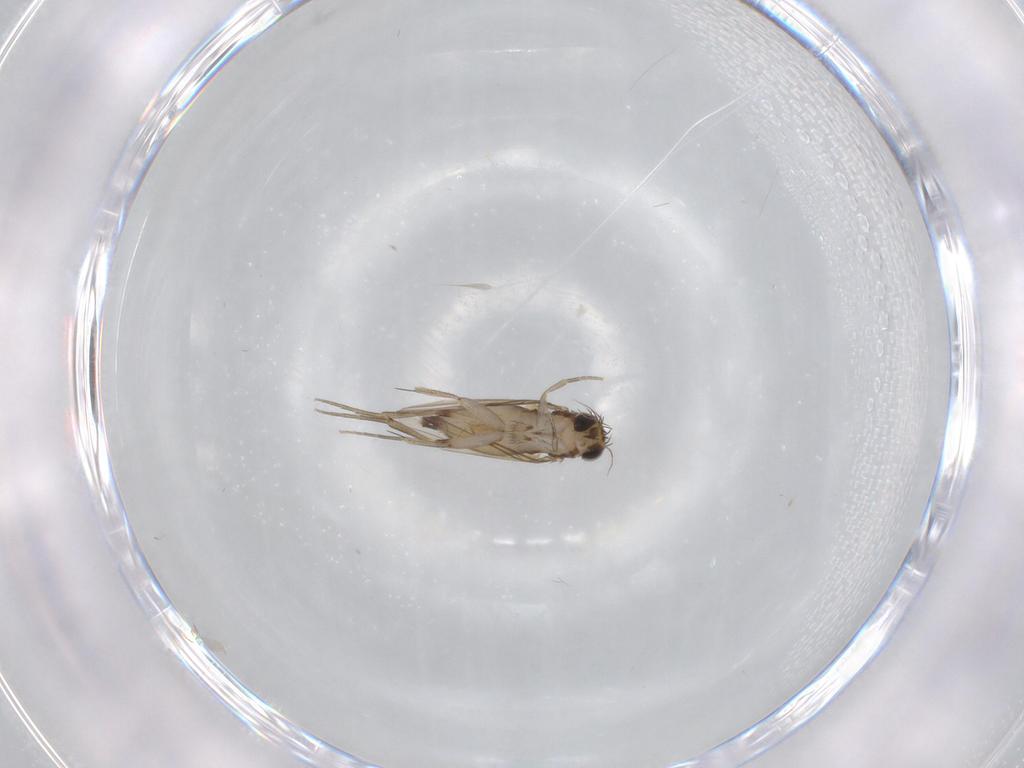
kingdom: Animalia
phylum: Arthropoda
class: Insecta
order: Diptera
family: Phoridae
